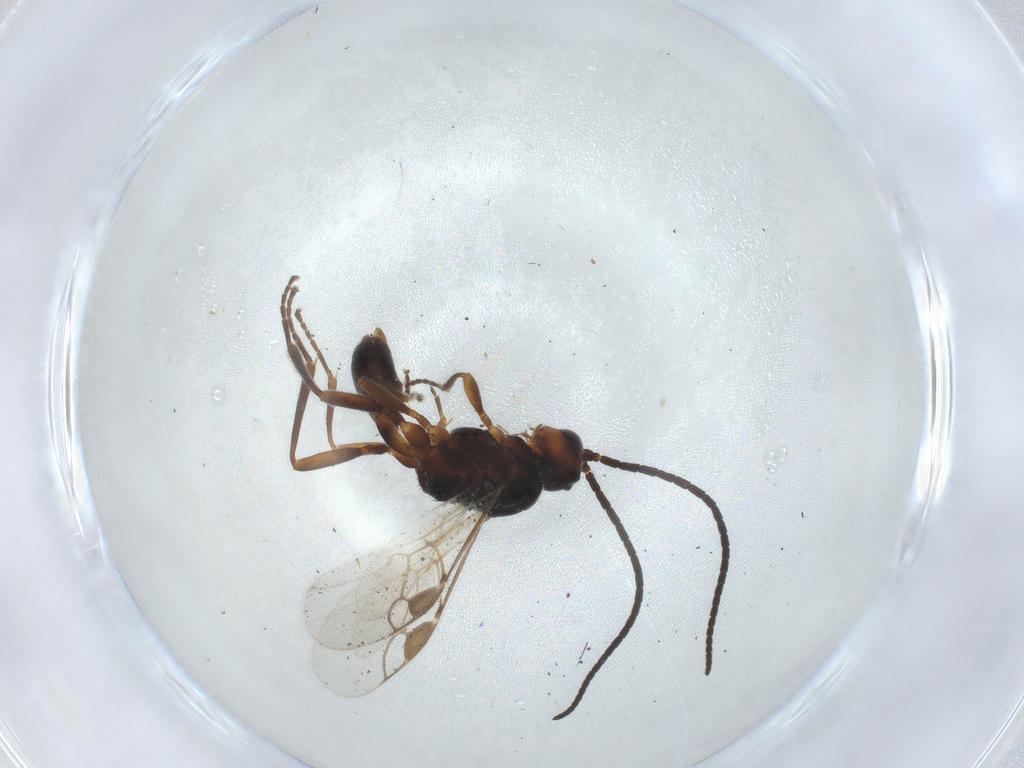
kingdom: Animalia
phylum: Arthropoda
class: Insecta
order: Hymenoptera
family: Braconidae
